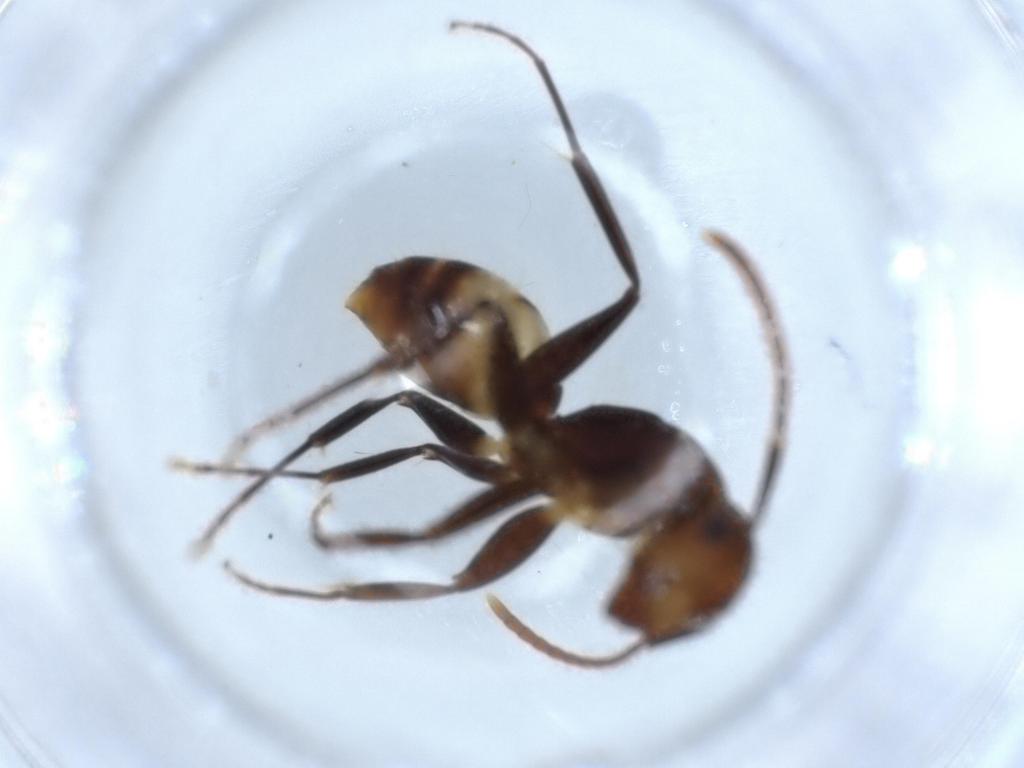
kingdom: Animalia
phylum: Arthropoda
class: Insecta
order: Hymenoptera
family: Formicidae
